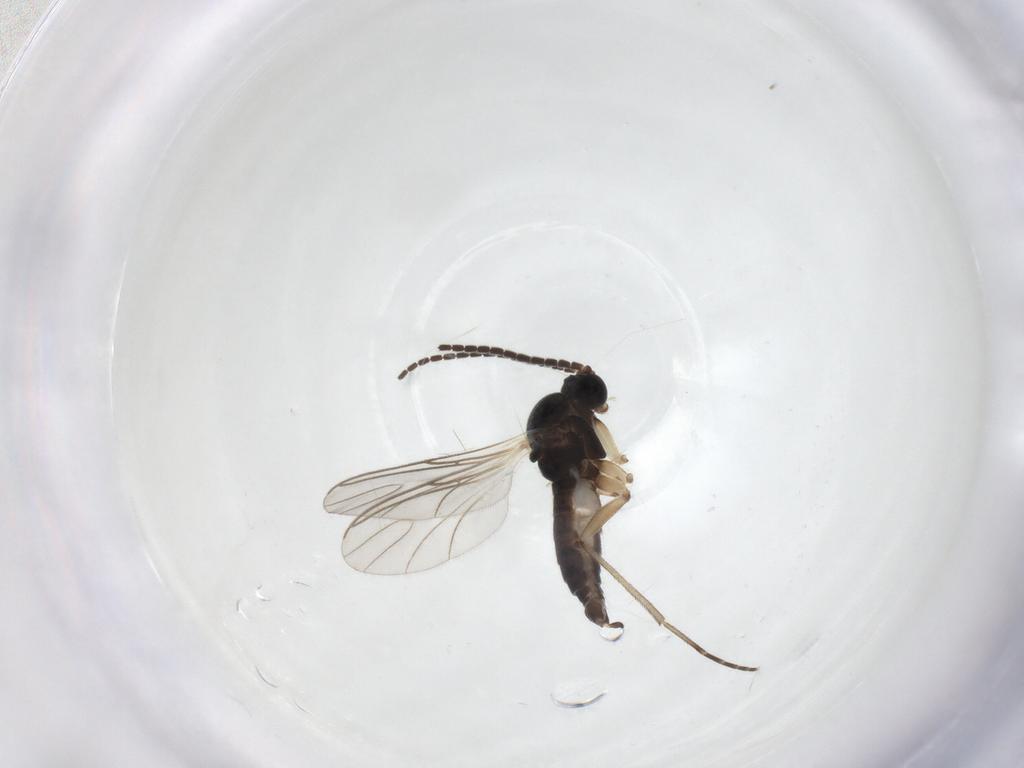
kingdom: Animalia
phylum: Arthropoda
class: Insecta
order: Diptera
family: Sciaridae
